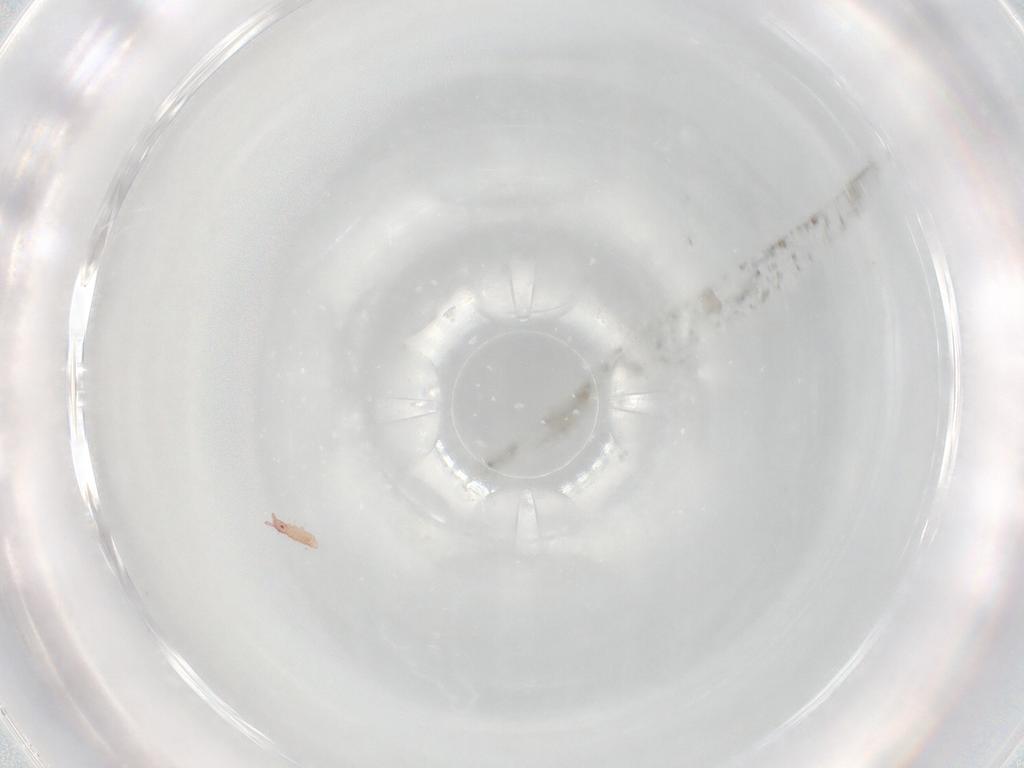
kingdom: Animalia
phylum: Arthropoda
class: Collembola
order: Poduromorpha
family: Hypogastruridae
